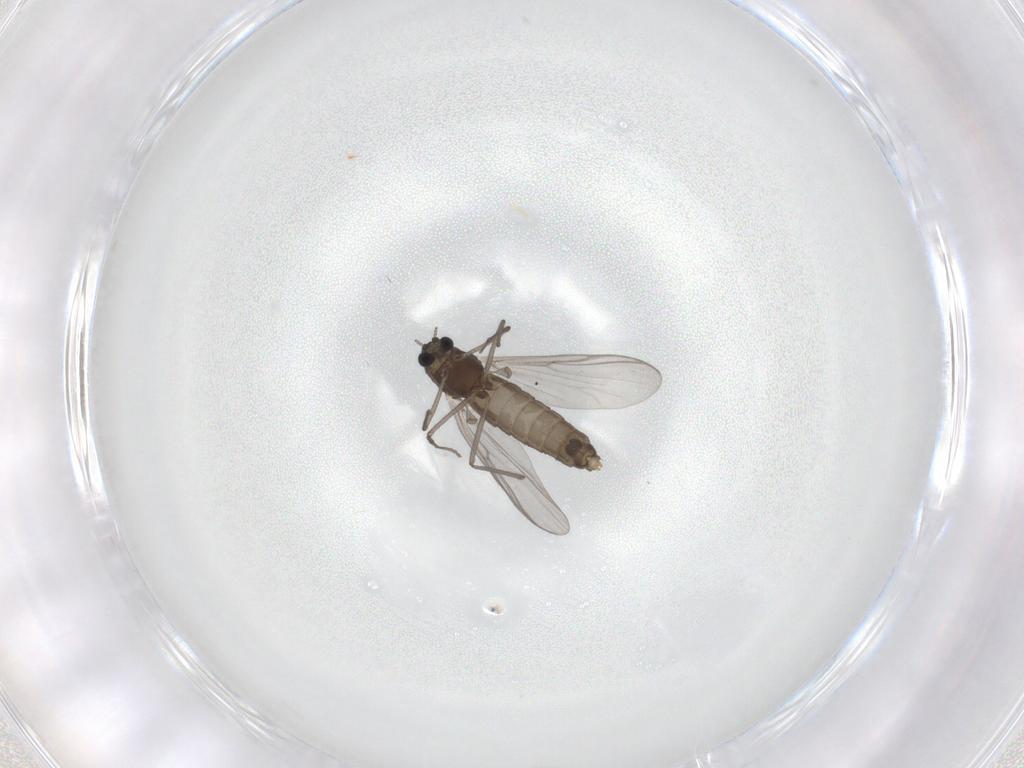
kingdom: Animalia
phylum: Arthropoda
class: Insecta
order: Diptera
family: Chironomidae
